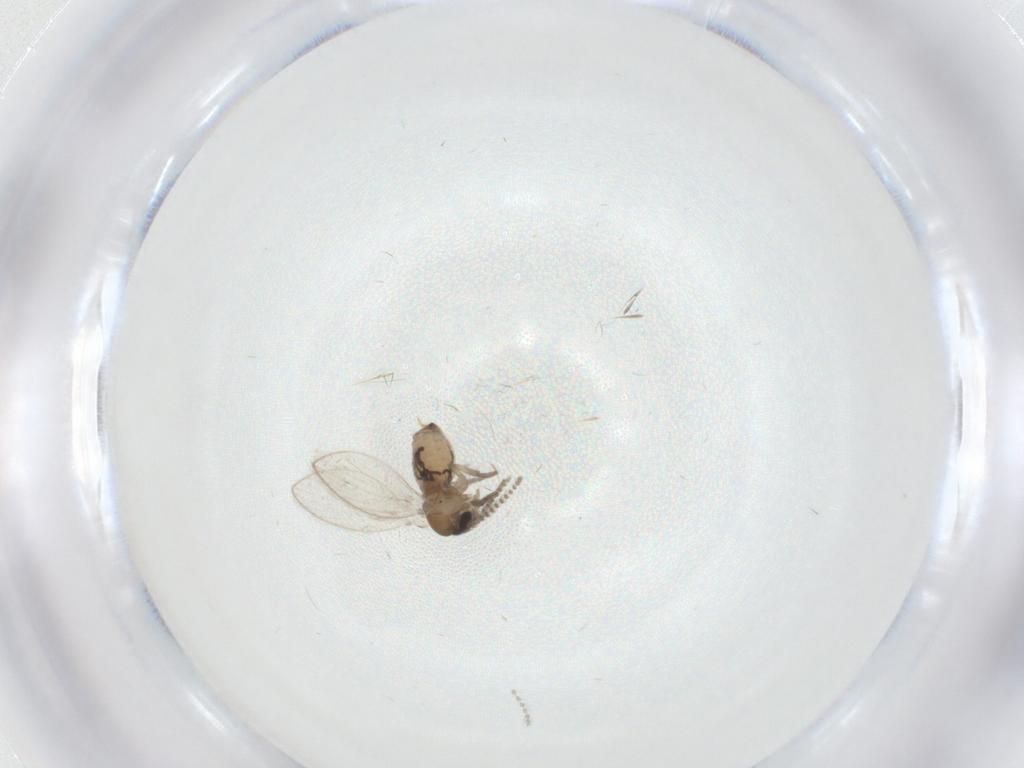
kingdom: Animalia
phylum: Arthropoda
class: Insecta
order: Diptera
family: Psychodidae
